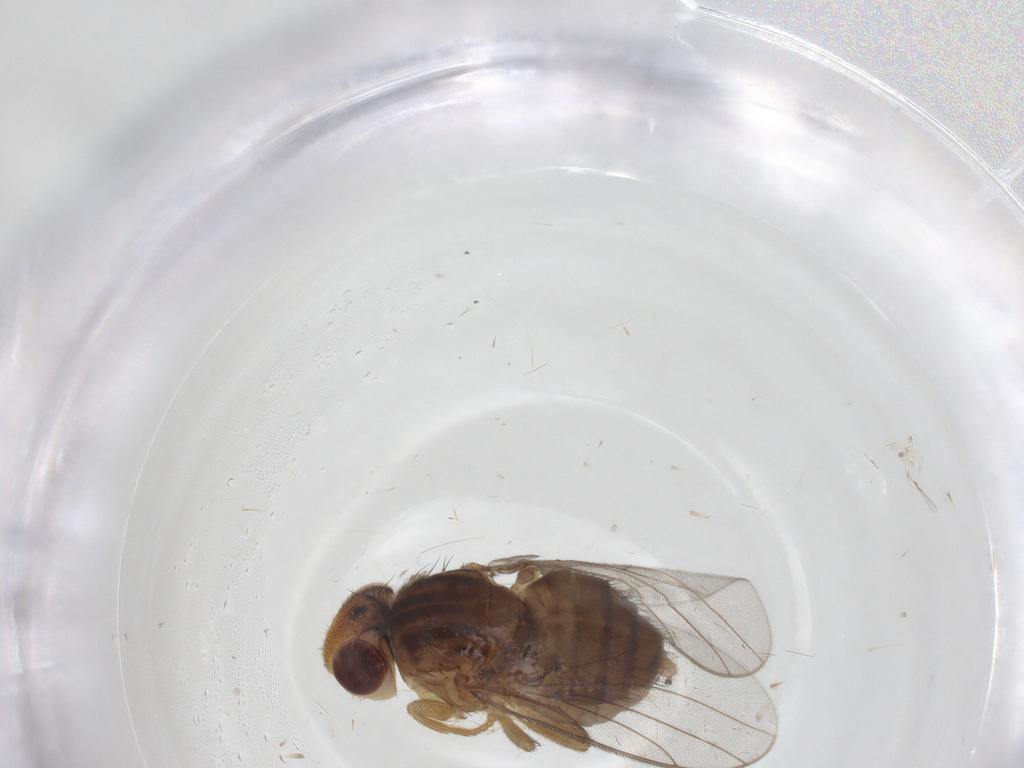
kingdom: Animalia
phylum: Arthropoda
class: Insecta
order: Diptera
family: Chloropidae
